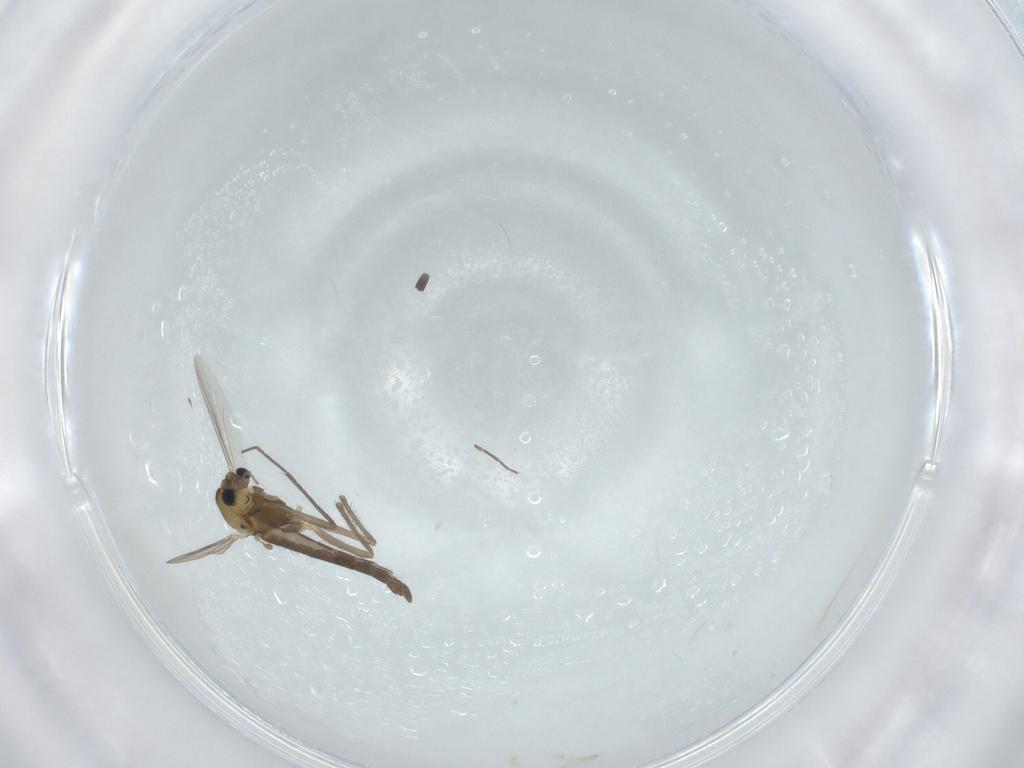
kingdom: Animalia
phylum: Arthropoda
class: Insecta
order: Diptera
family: Chironomidae
